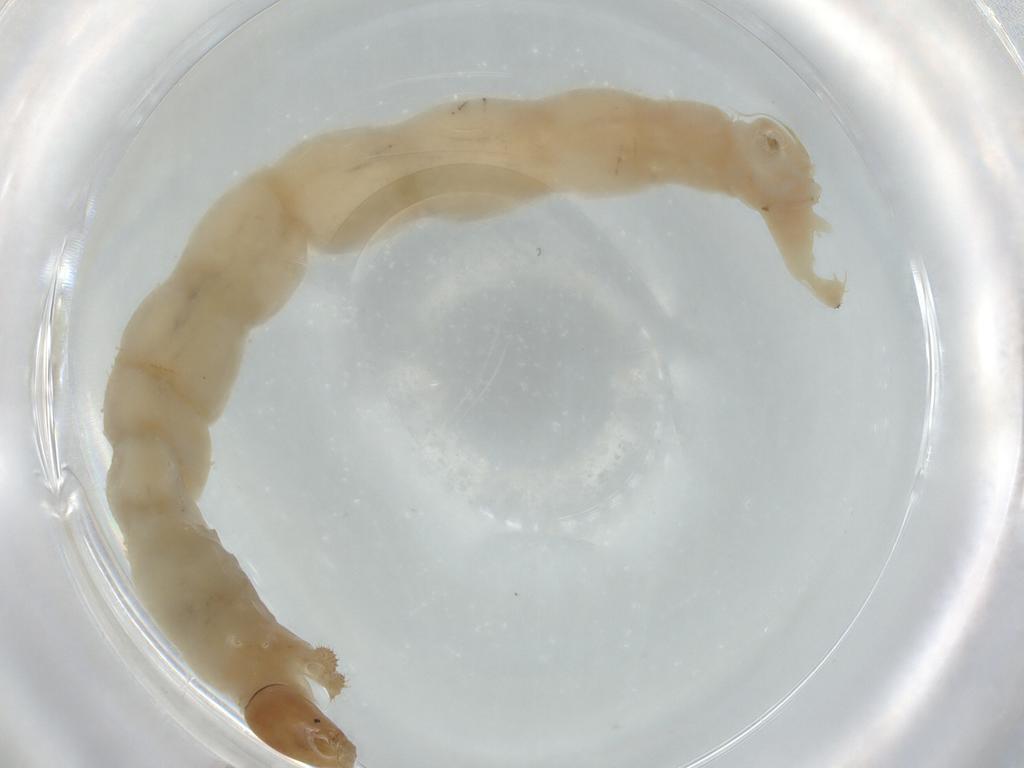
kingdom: Animalia
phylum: Arthropoda
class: Insecta
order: Diptera
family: Chironomidae
